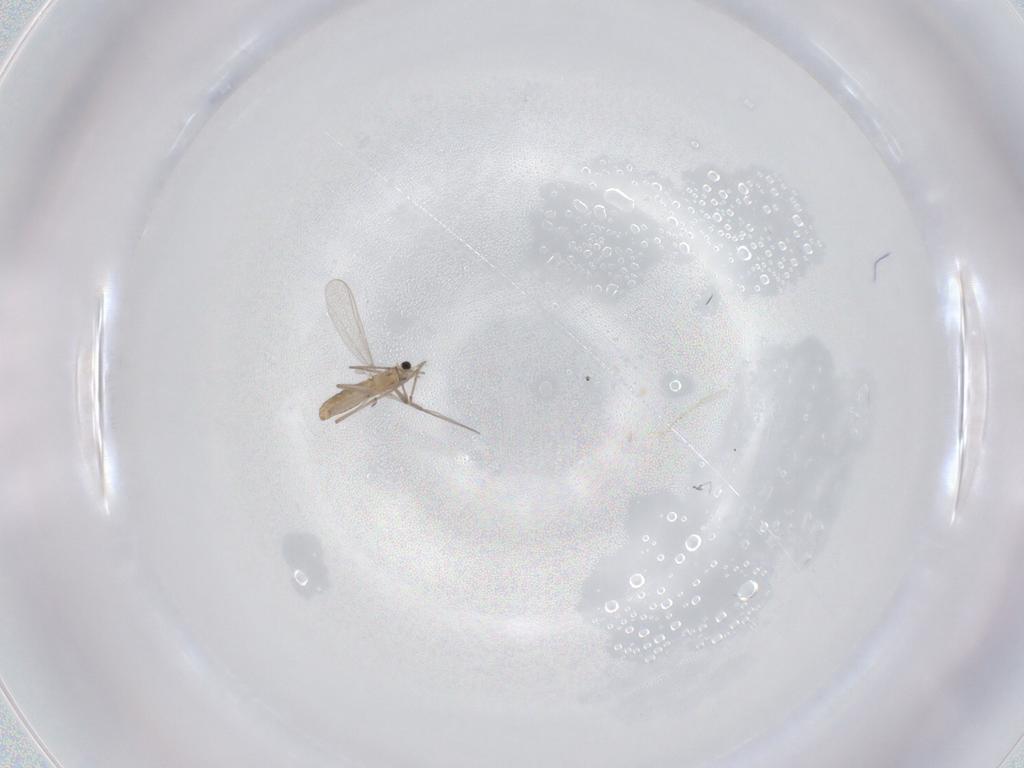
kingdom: Animalia
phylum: Arthropoda
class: Insecta
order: Diptera
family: Chironomidae
